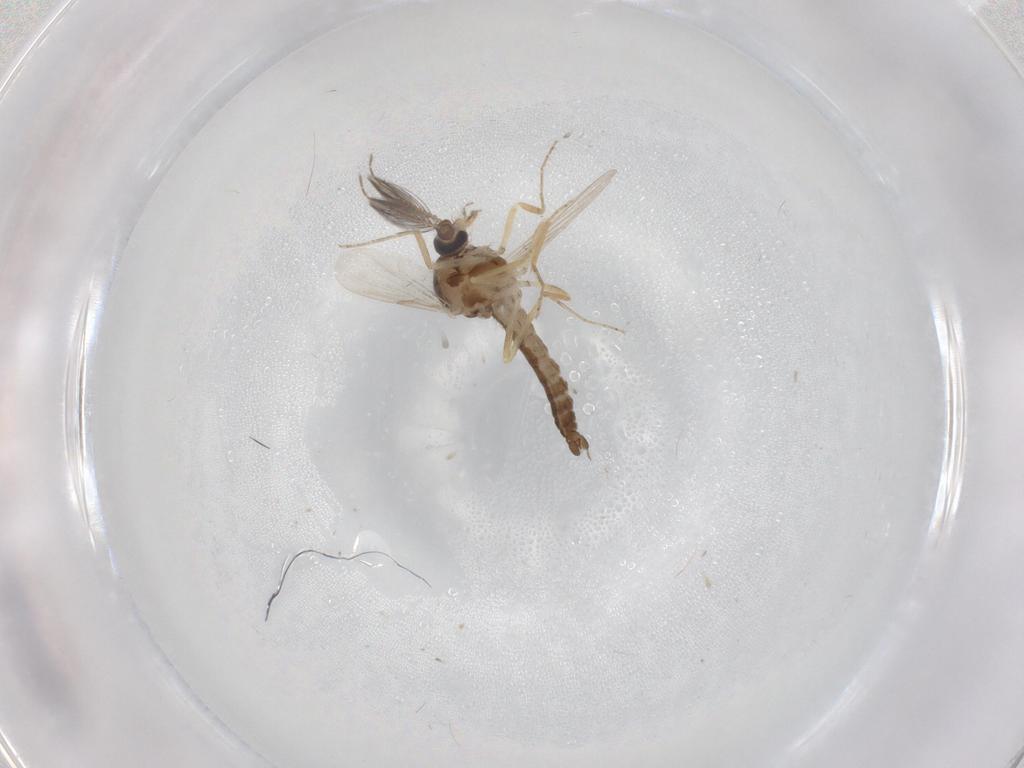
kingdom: Animalia
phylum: Arthropoda
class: Insecta
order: Diptera
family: Ceratopogonidae
